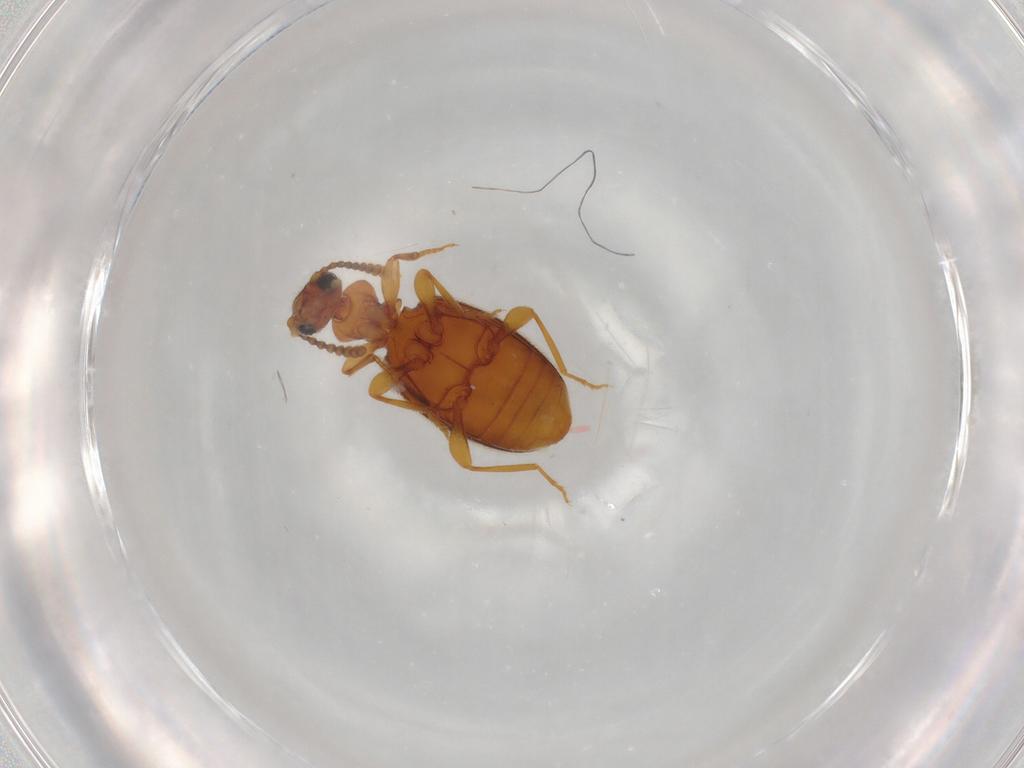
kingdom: Animalia
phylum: Arthropoda
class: Insecta
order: Coleoptera
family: Anthicidae
